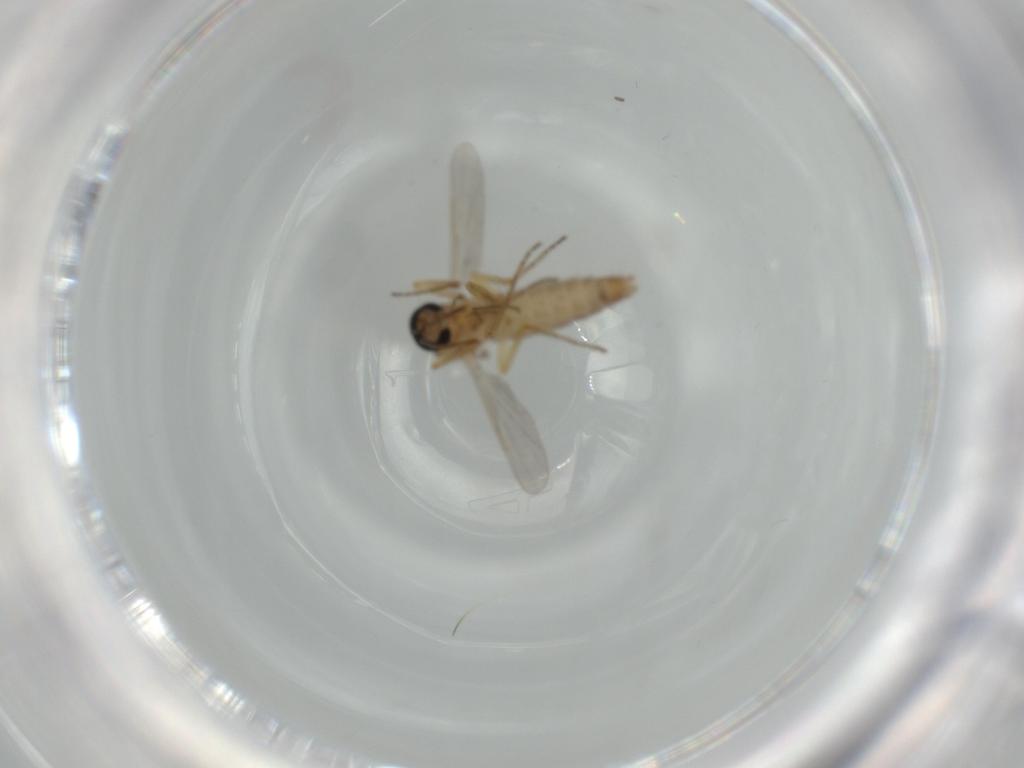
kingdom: Animalia
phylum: Arthropoda
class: Insecta
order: Diptera
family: Ceratopogonidae
